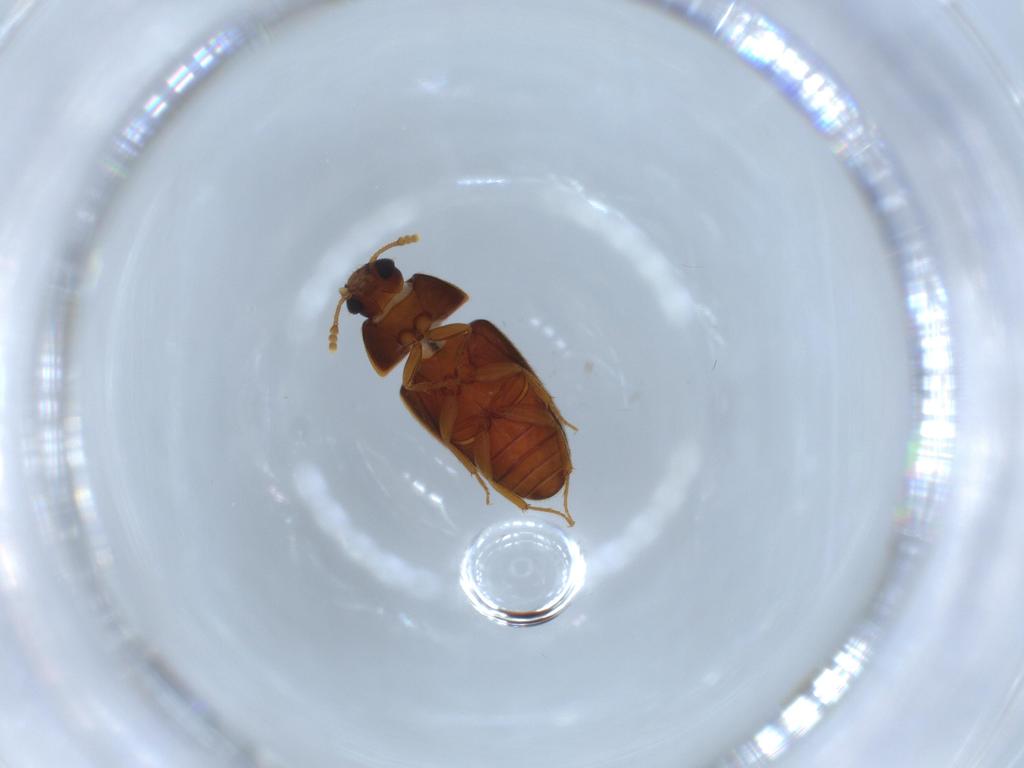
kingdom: Animalia
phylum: Arthropoda
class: Insecta
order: Coleoptera
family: Mycetophagidae
